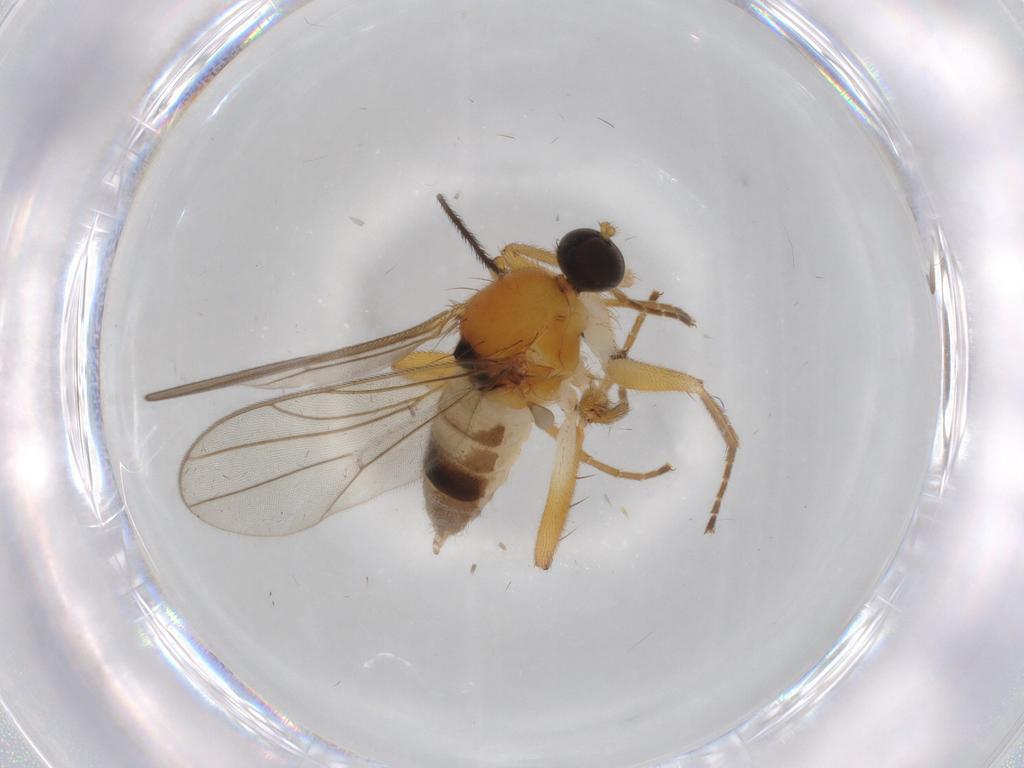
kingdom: Animalia
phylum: Arthropoda
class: Insecta
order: Diptera
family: Hybotidae
